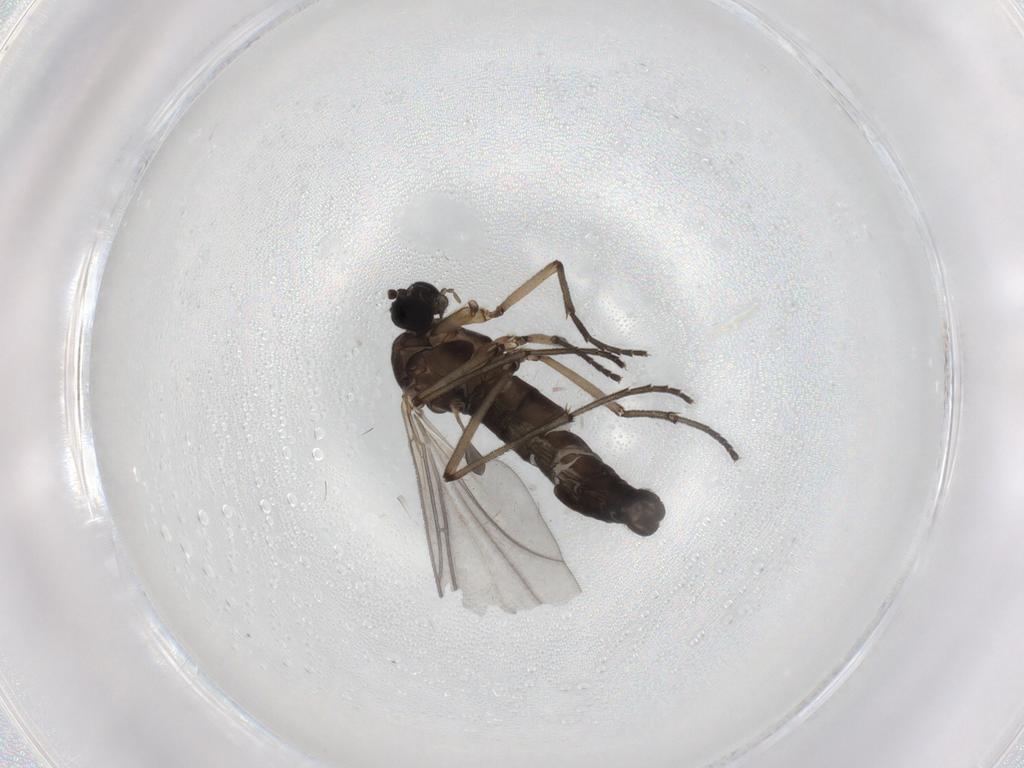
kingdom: Animalia
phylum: Arthropoda
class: Insecta
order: Diptera
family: Sciaridae
